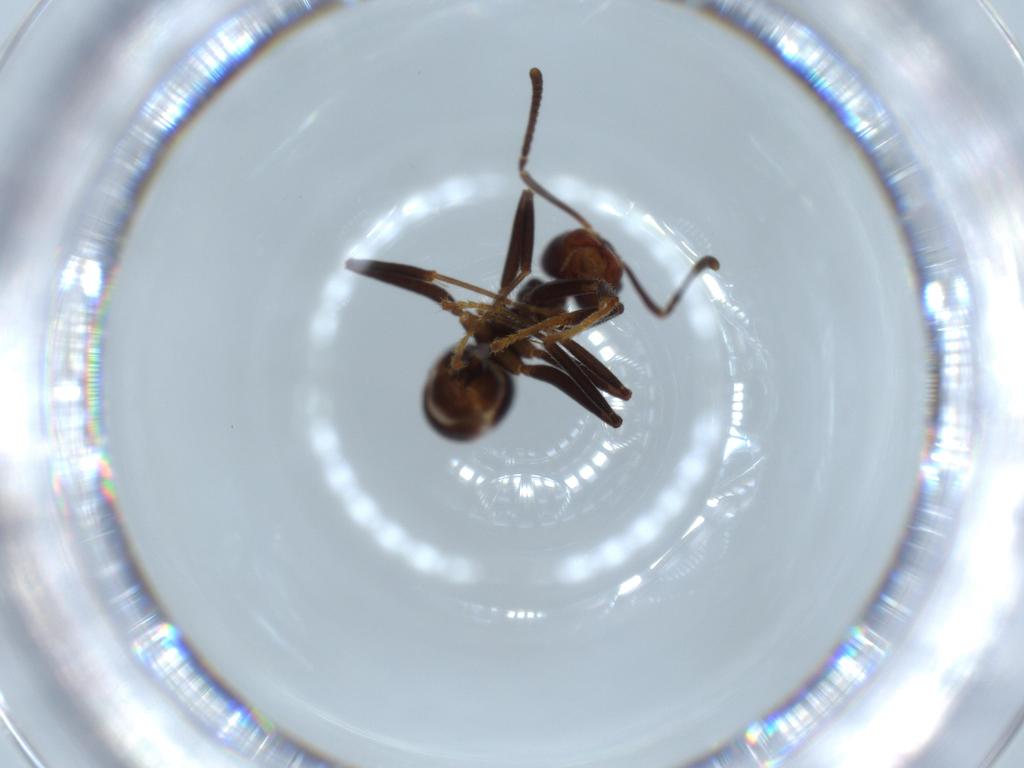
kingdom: Animalia
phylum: Arthropoda
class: Insecta
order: Hymenoptera
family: Formicidae
